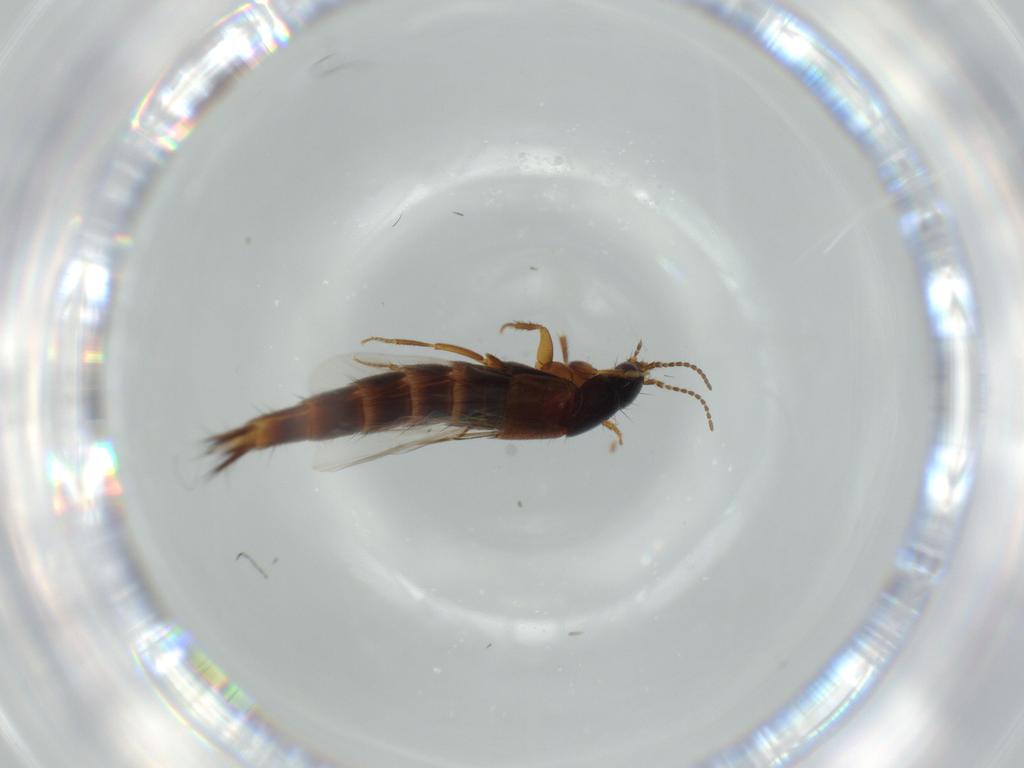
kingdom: Animalia
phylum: Arthropoda
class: Insecta
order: Coleoptera
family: Staphylinidae
